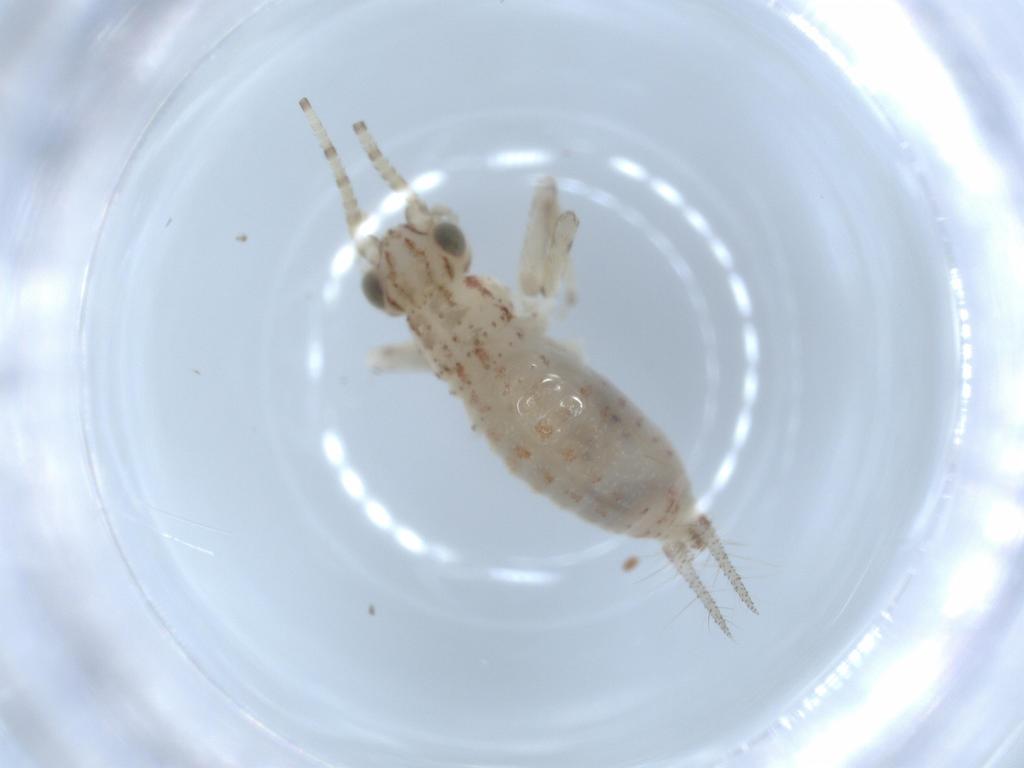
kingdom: Animalia
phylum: Arthropoda
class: Insecta
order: Orthoptera
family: Trigonidiidae
